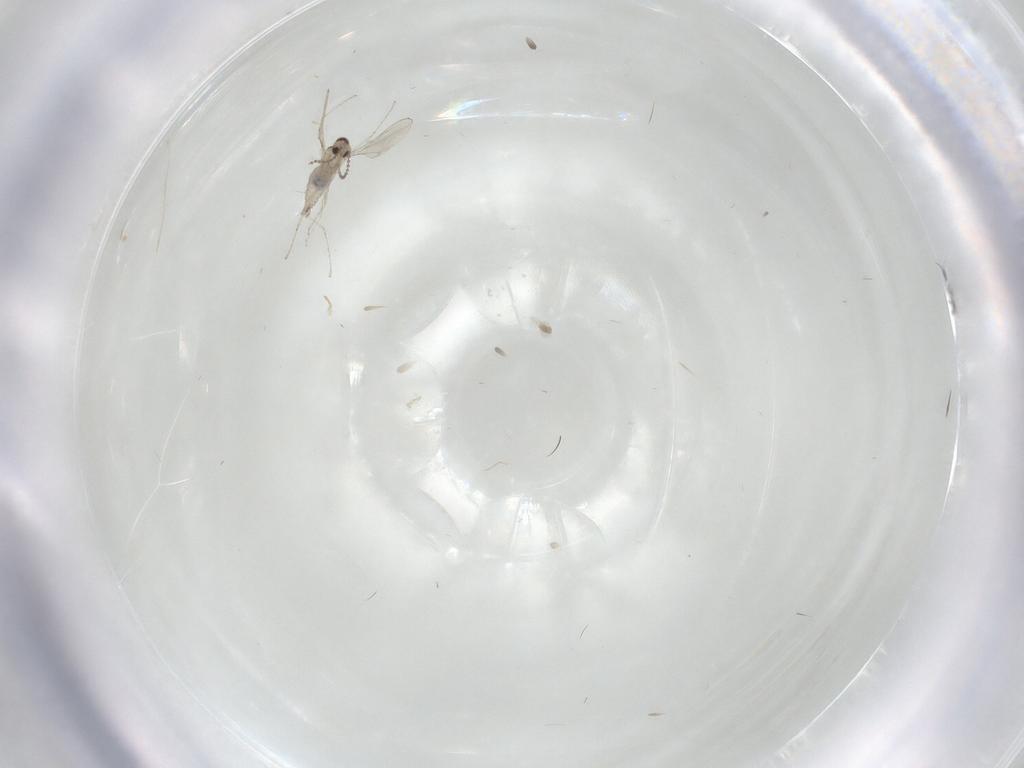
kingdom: Animalia
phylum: Arthropoda
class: Insecta
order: Diptera
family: Cecidomyiidae
